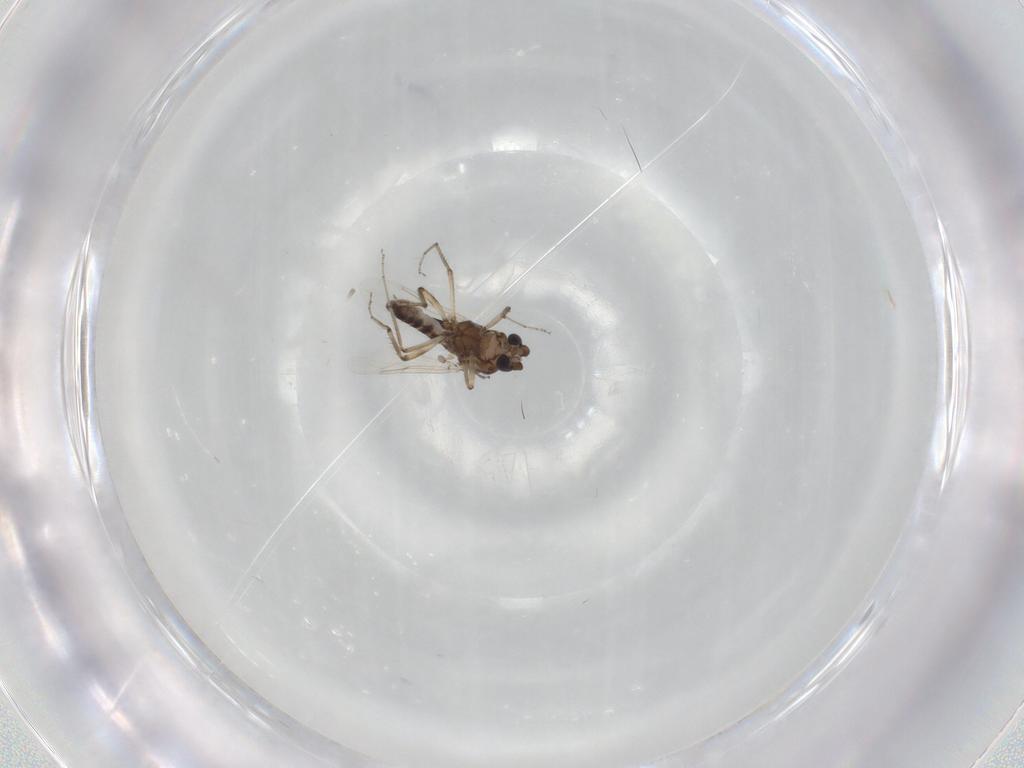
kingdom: Animalia
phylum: Arthropoda
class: Insecta
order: Diptera
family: Ceratopogonidae
